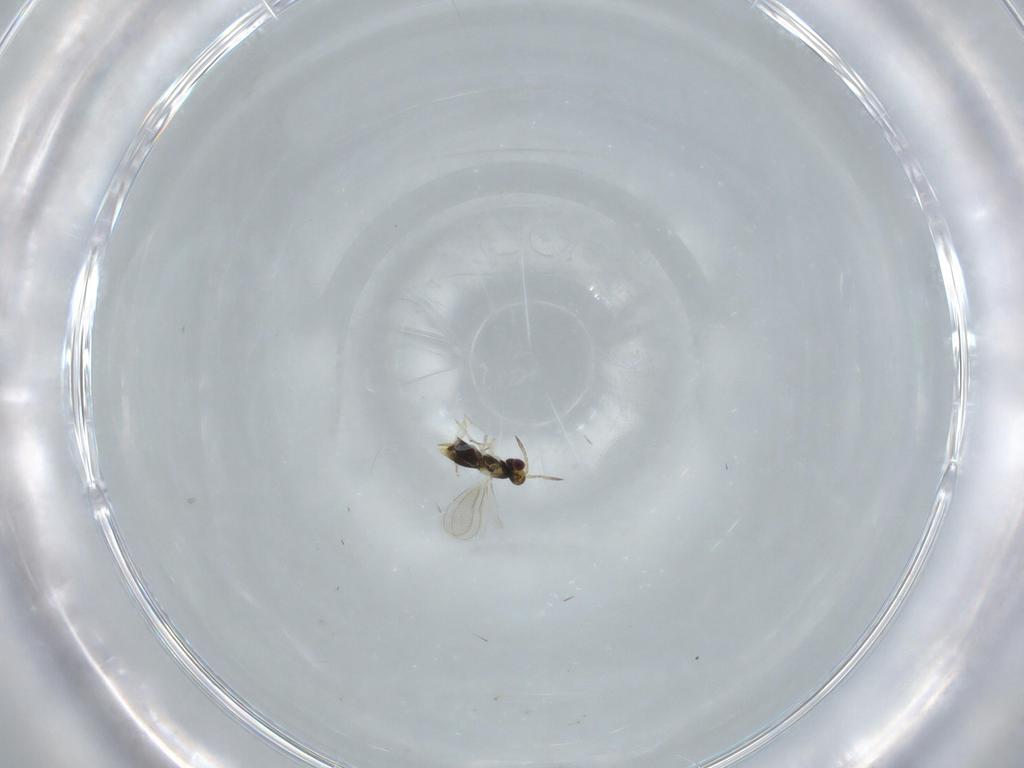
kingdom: Animalia
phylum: Arthropoda
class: Insecta
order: Hymenoptera
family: Aphelinidae
